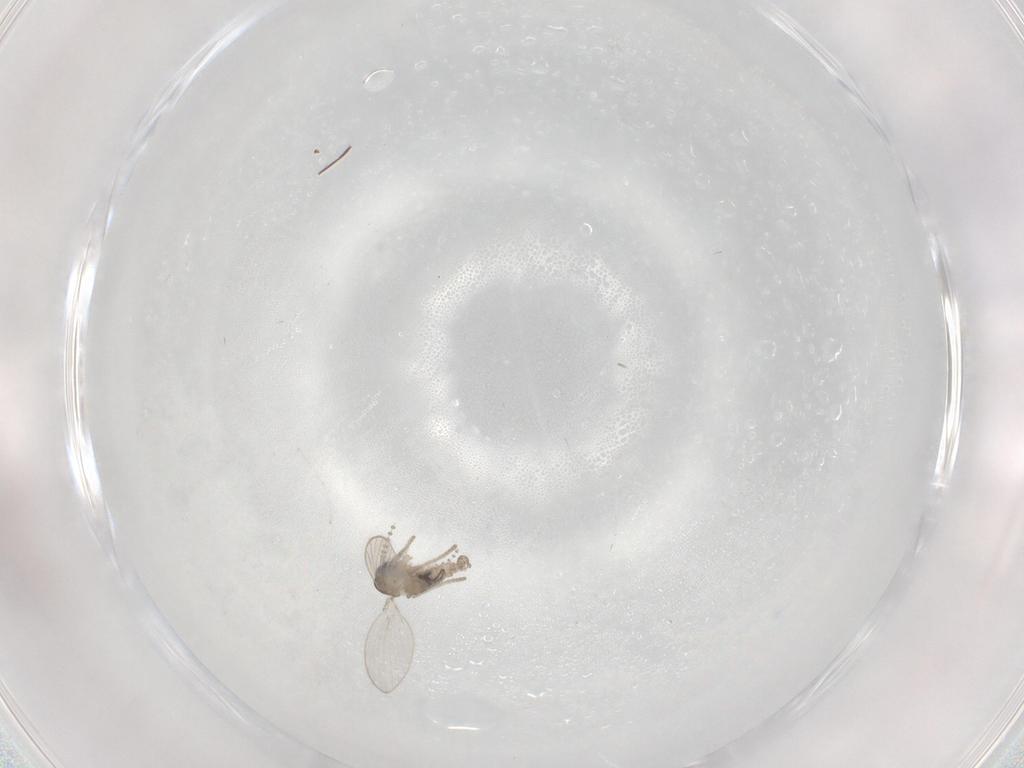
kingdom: Animalia
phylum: Arthropoda
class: Insecta
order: Diptera
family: Psychodidae
